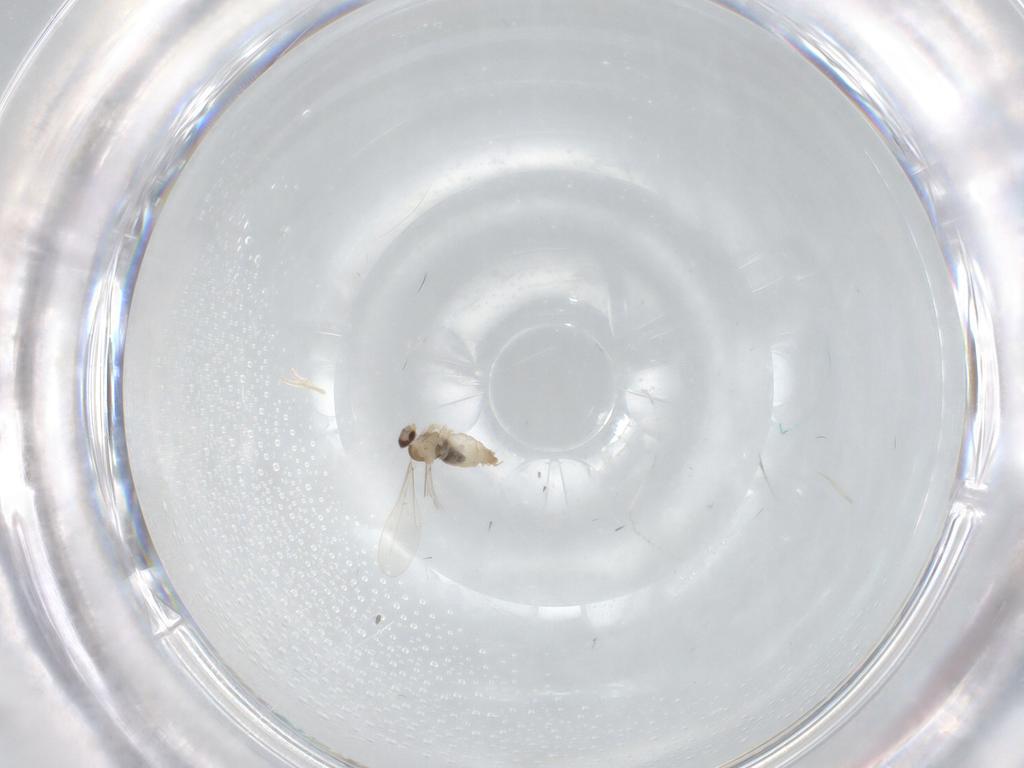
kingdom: Animalia
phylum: Arthropoda
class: Insecta
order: Diptera
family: Cecidomyiidae
